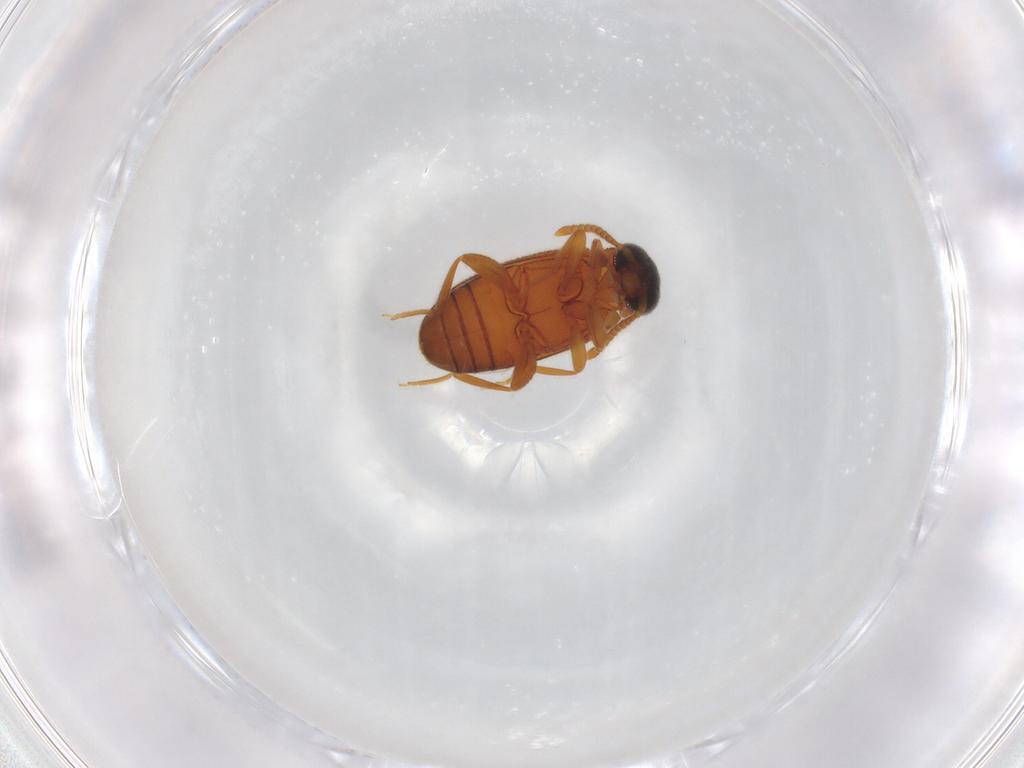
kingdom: Animalia
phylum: Arthropoda
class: Insecta
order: Coleoptera
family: Aderidae
